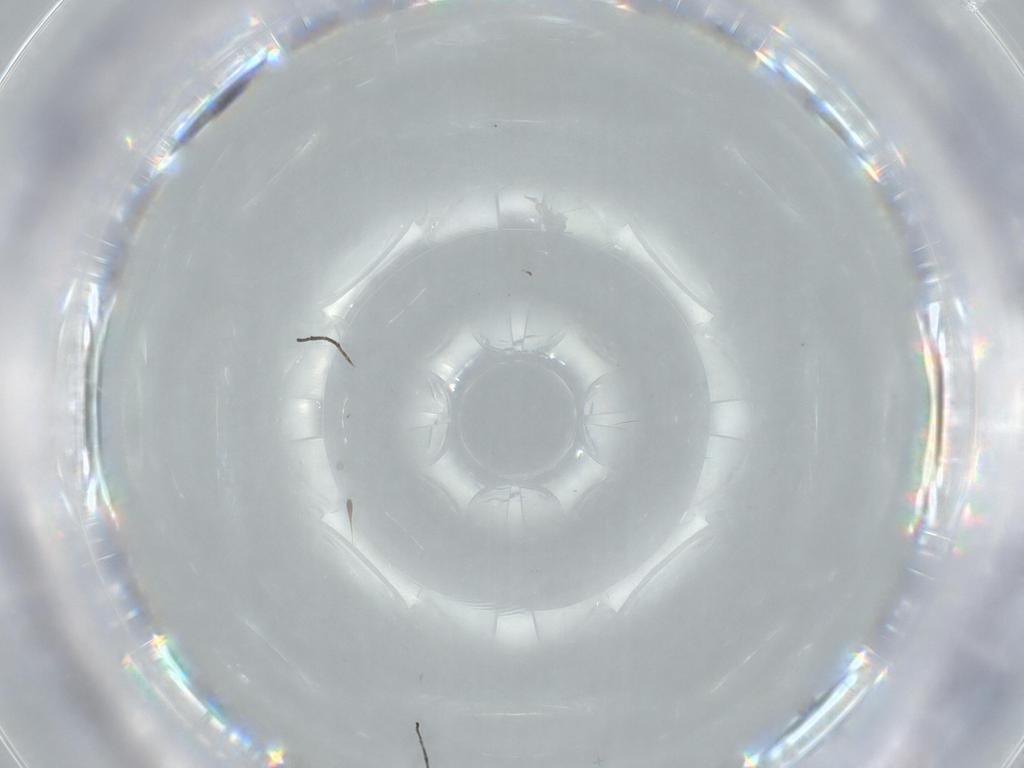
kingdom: Animalia
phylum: Arthropoda
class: Insecta
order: Diptera
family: Cecidomyiidae
